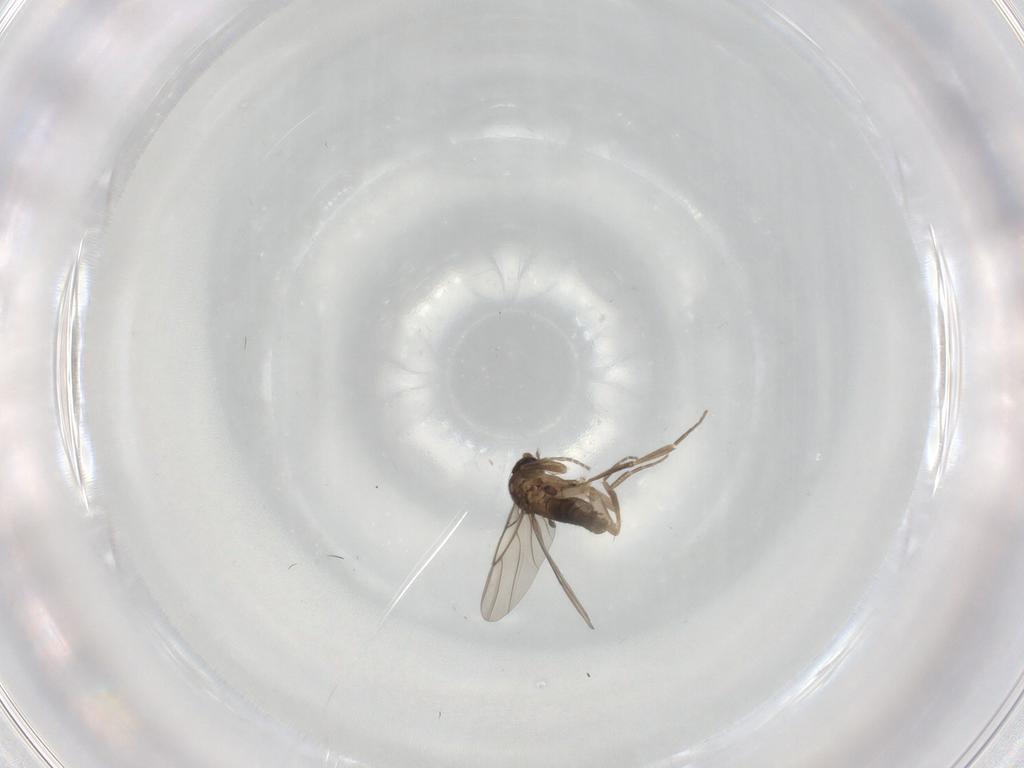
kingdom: Animalia
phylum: Arthropoda
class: Insecta
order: Diptera
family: Phoridae
